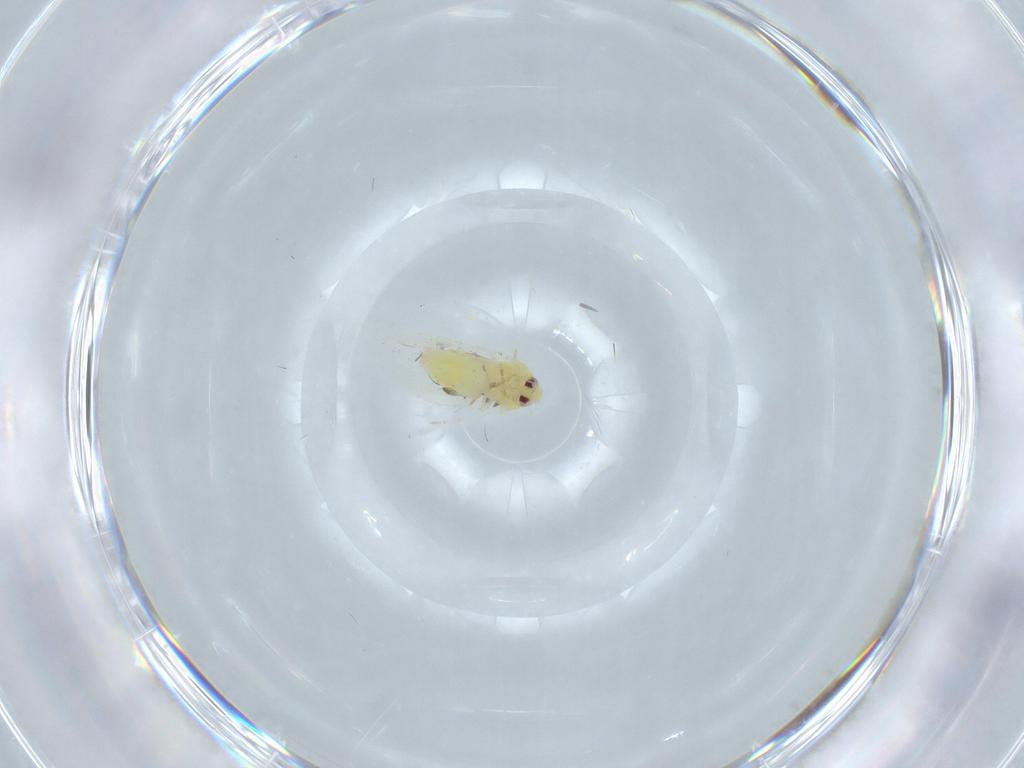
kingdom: Animalia
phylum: Arthropoda
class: Insecta
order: Hemiptera
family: Aleyrodidae
